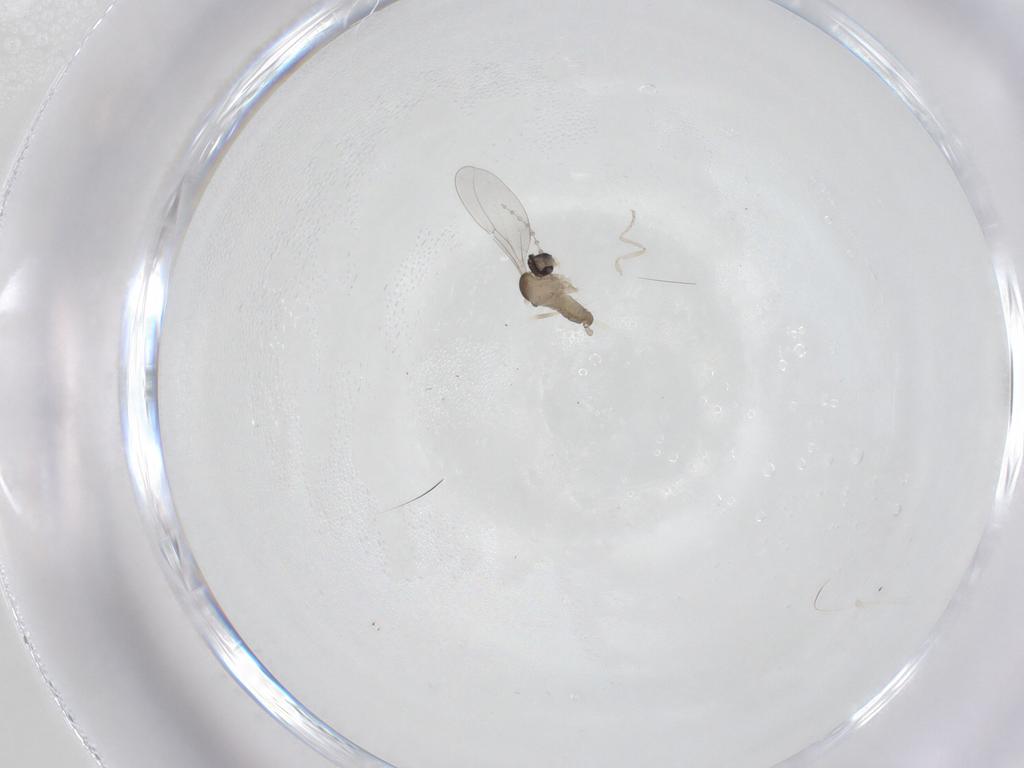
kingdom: Animalia
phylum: Arthropoda
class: Insecta
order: Diptera
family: Cecidomyiidae
